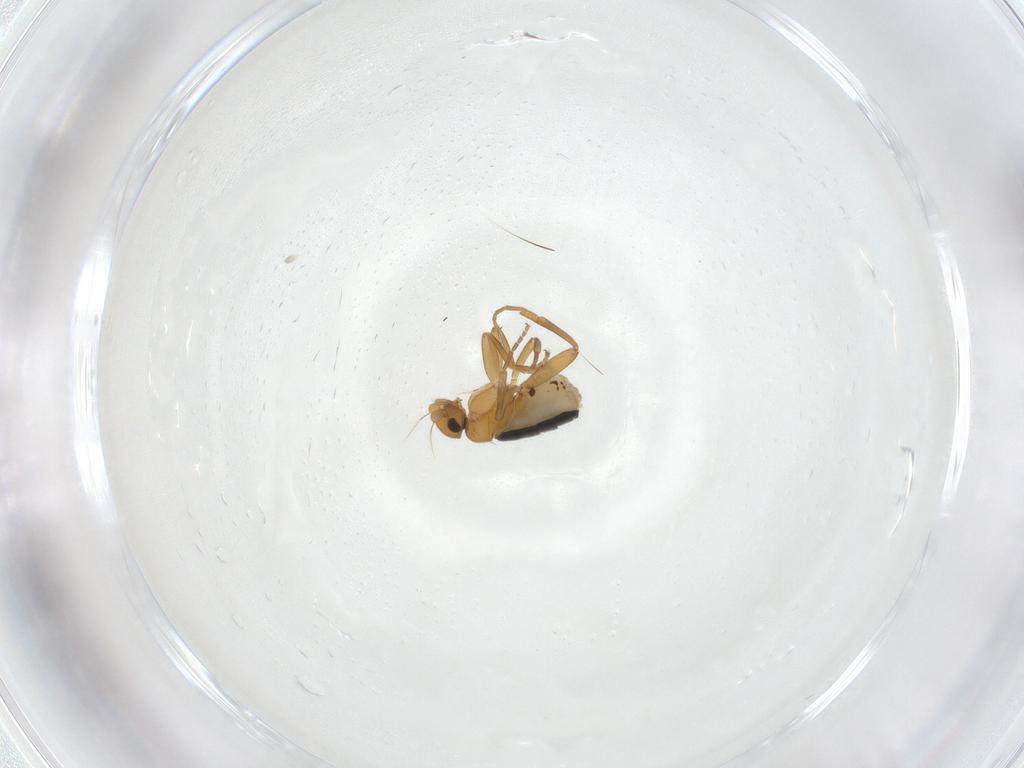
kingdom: Animalia
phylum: Arthropoda
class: Insecta
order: Diptera
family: Phoridae
